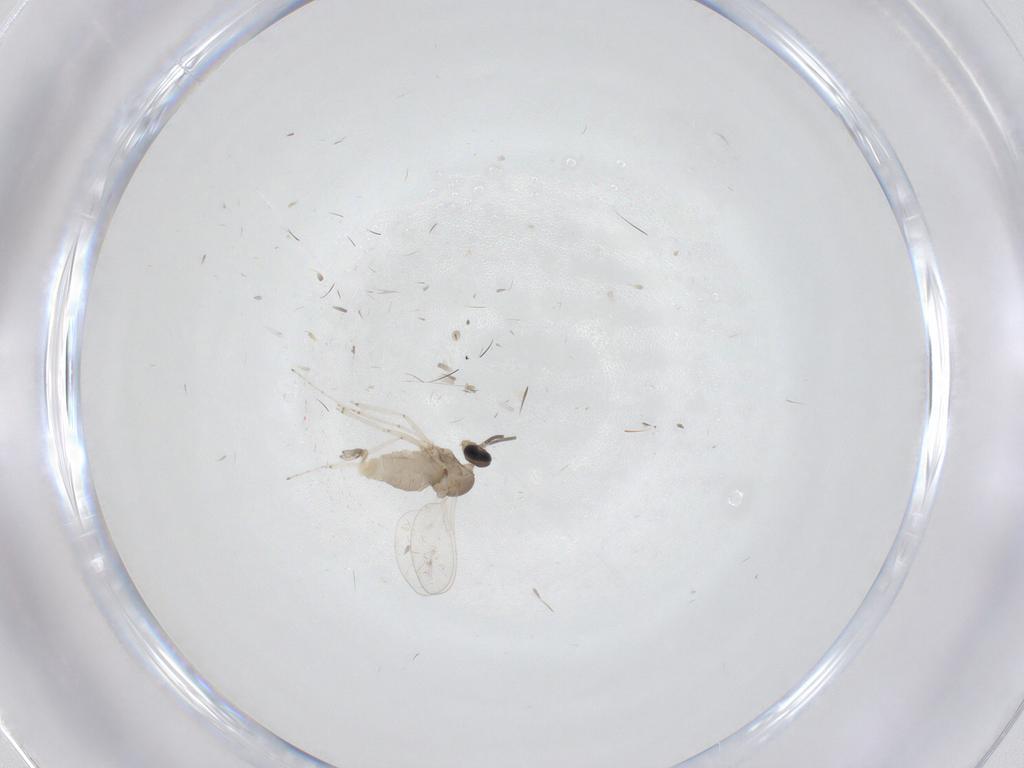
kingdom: Animalia
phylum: Arthropoda
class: Insecta
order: Diptera
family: Cecidomyiidae
